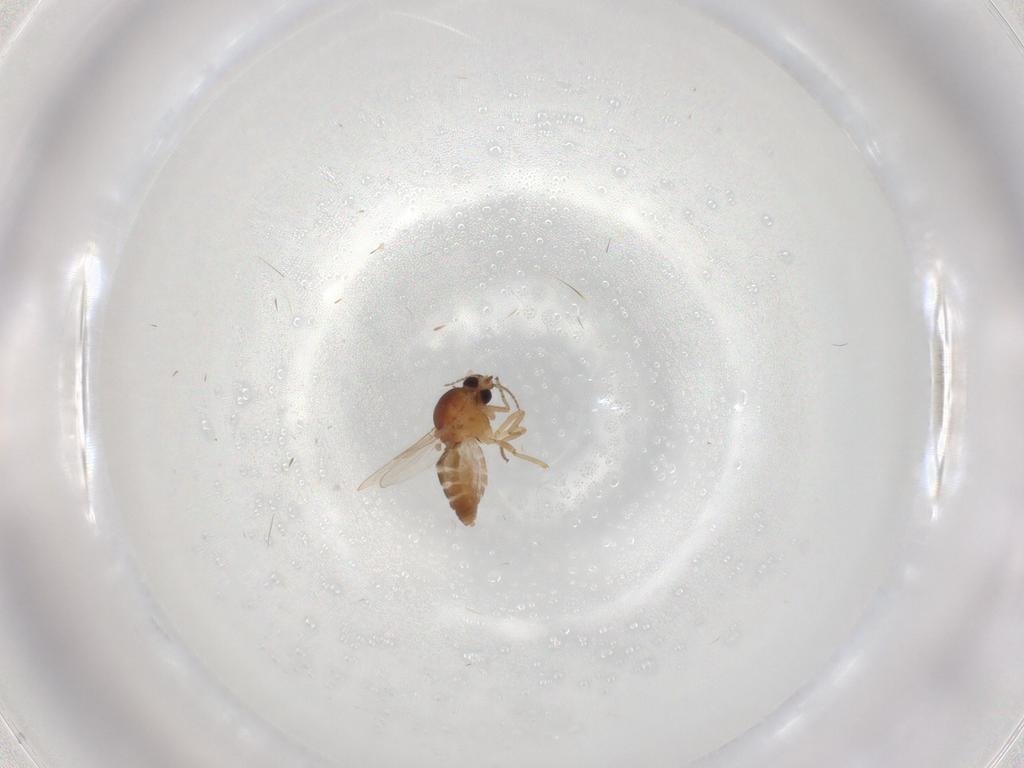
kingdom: Animalia
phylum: Arthropoda
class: Insecta
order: Diptera
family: Ceratopogonidae
